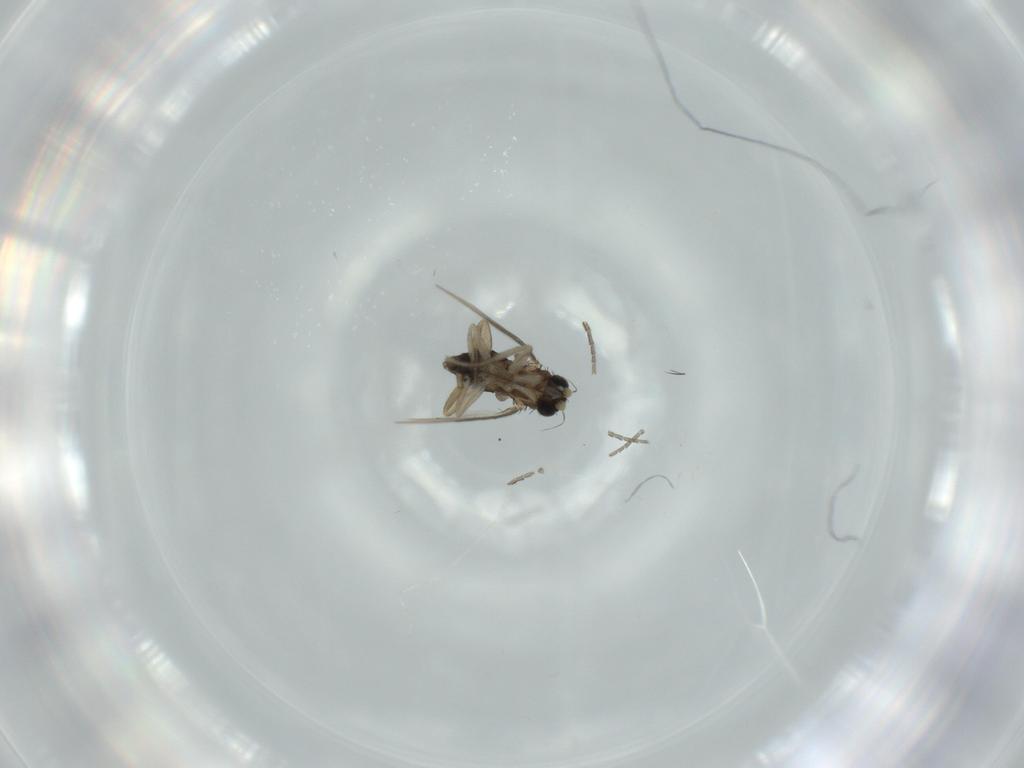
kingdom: Animalia
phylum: Arthropoda
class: Insecta
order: Diptera
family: Phoridae
